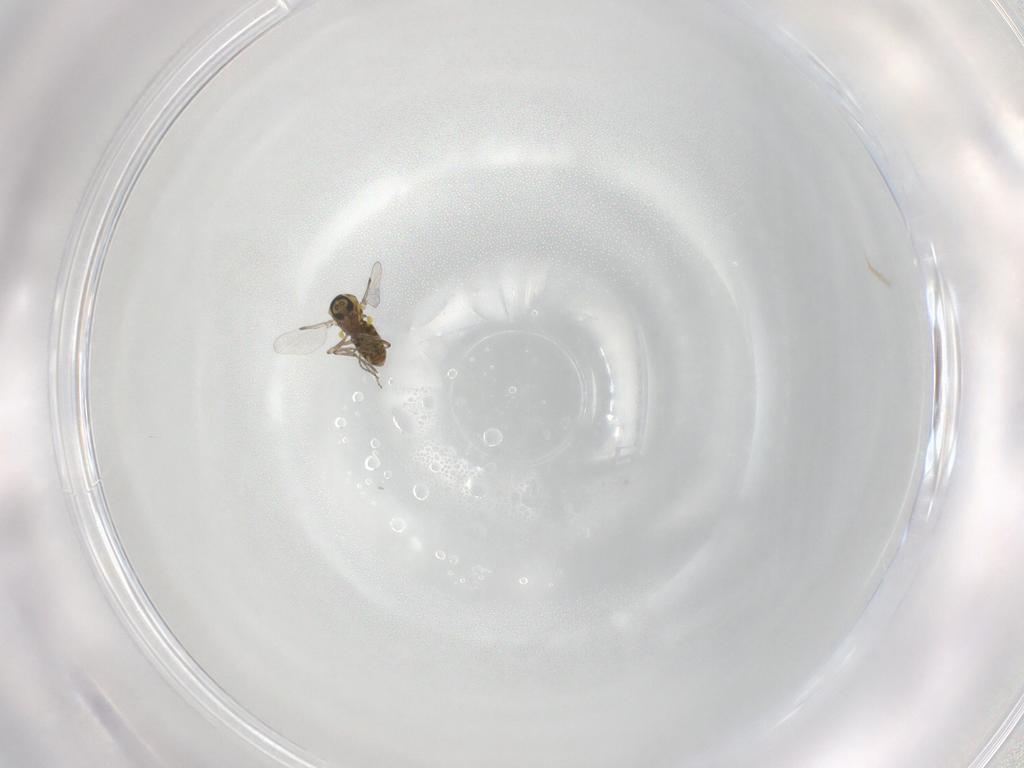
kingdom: Animalia
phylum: Arthropoda
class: Insecta
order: Diptera
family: Ceratopogonidae
